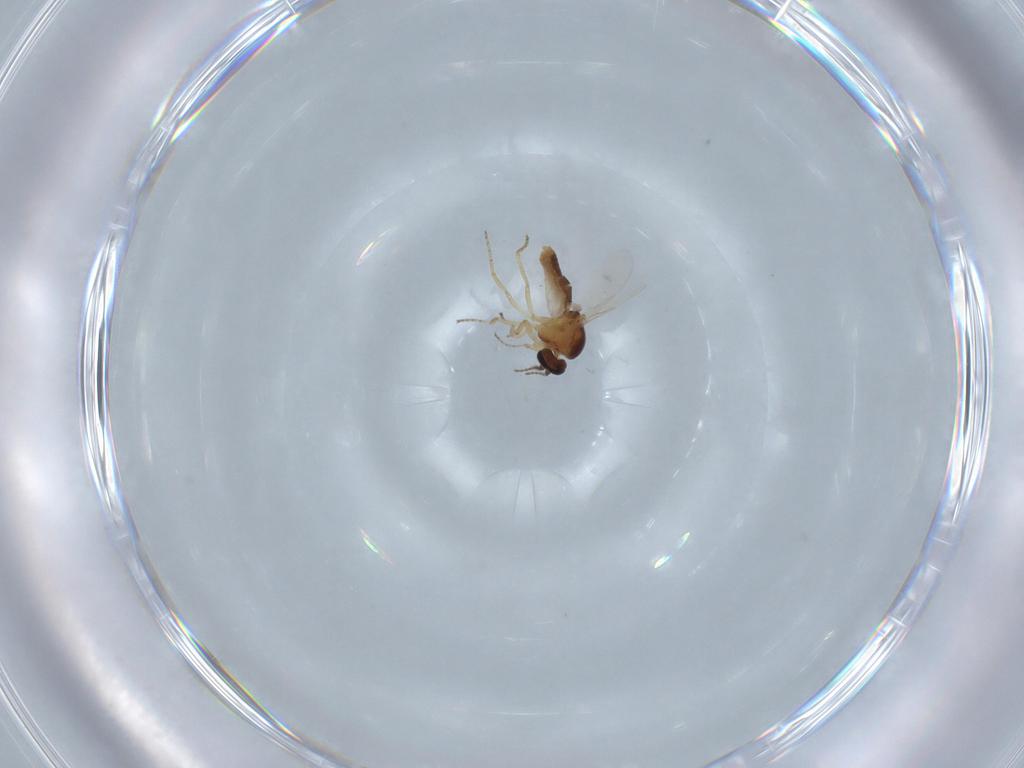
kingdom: Animalia
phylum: Arthropoda
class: Insecta
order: Diptera
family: Ceratopogonidae
